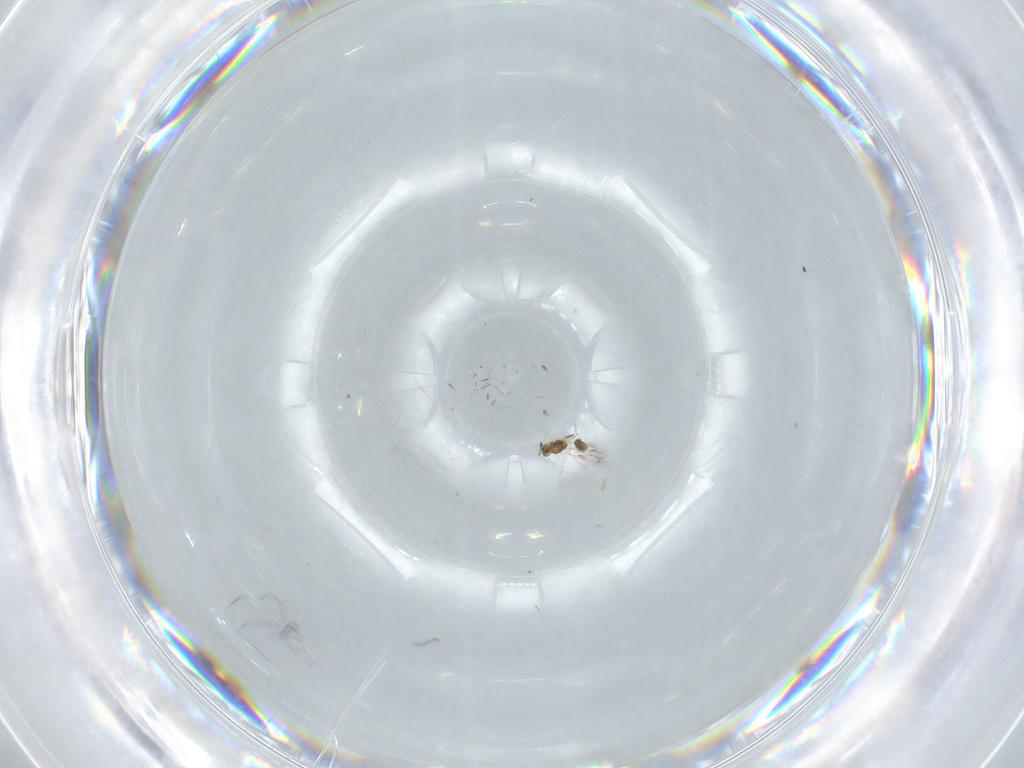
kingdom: Animalia
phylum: Arthropoda
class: Insecta
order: Hymenoptera
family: Mymarommatidae
